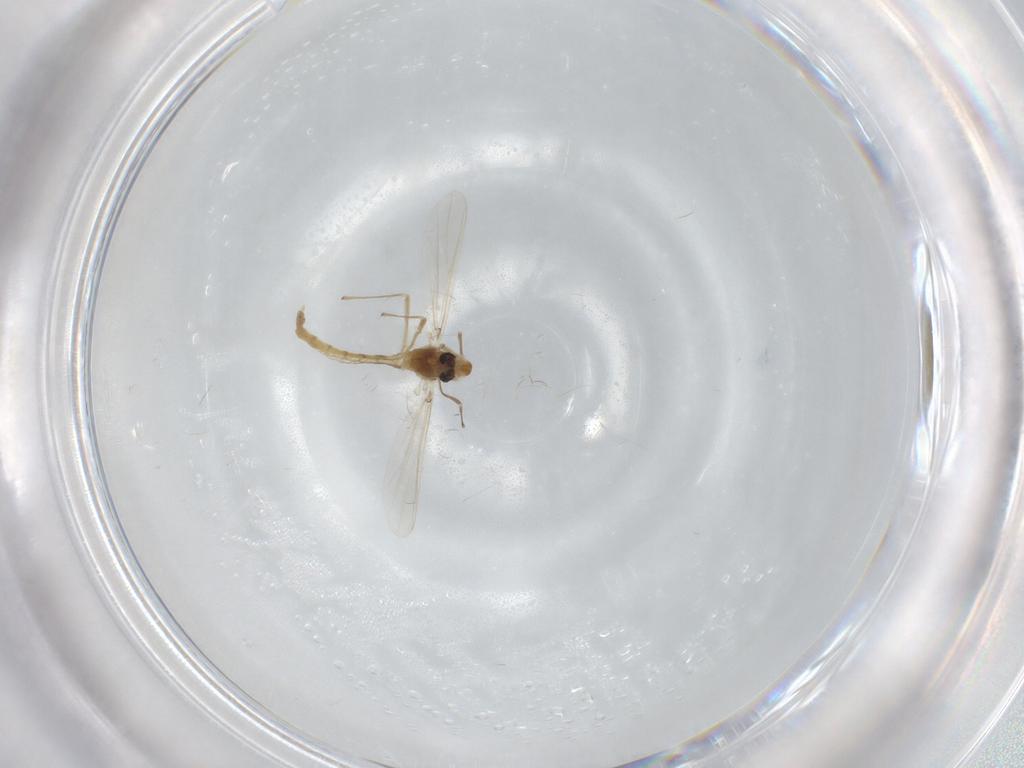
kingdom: Animalia
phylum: Arthropoda
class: Insecta
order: Diptera
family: Chironomidae
